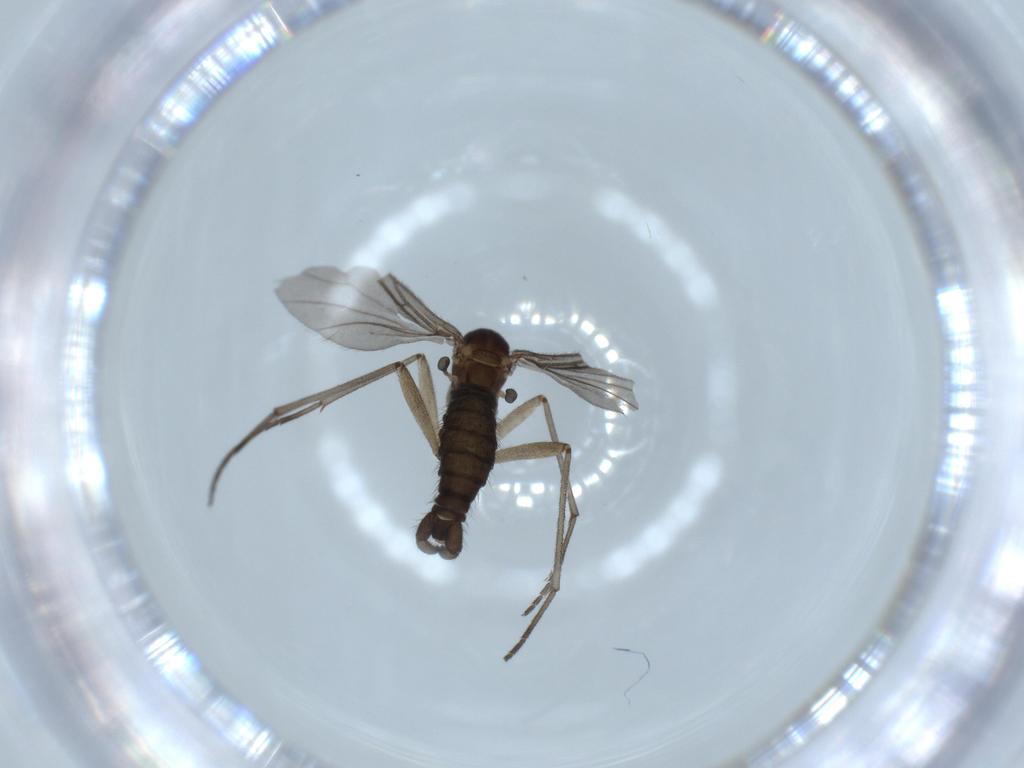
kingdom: Animalia
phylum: Arthropoda
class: Insecta
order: Diptera
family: Sciaridae
